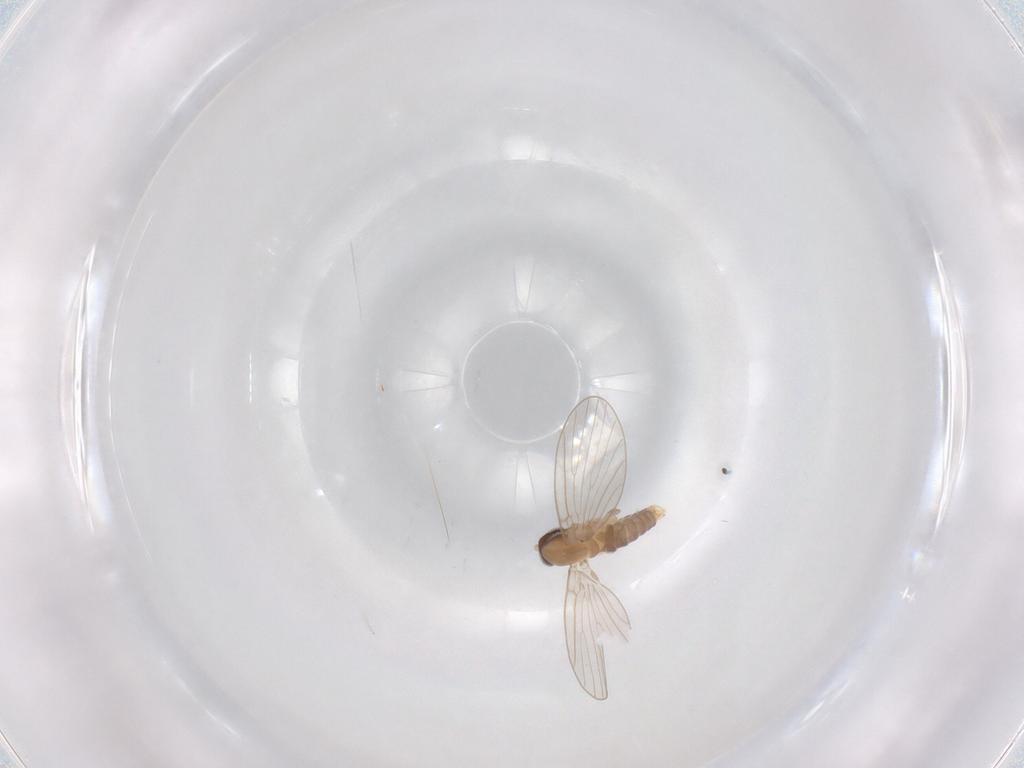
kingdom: Animalia
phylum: Arthropoda
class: Insecta
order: Diptera
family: Psychodidae
